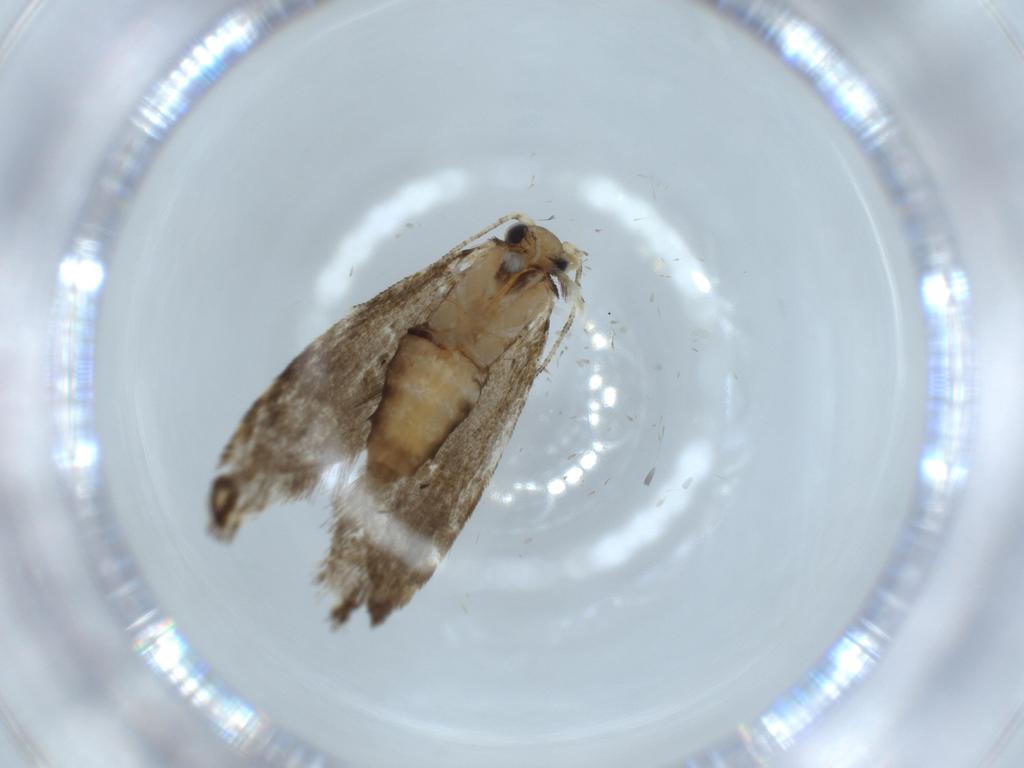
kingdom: Animalia
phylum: Arthropoda
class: Insecta
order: Lepidoptera
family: Tineidae
